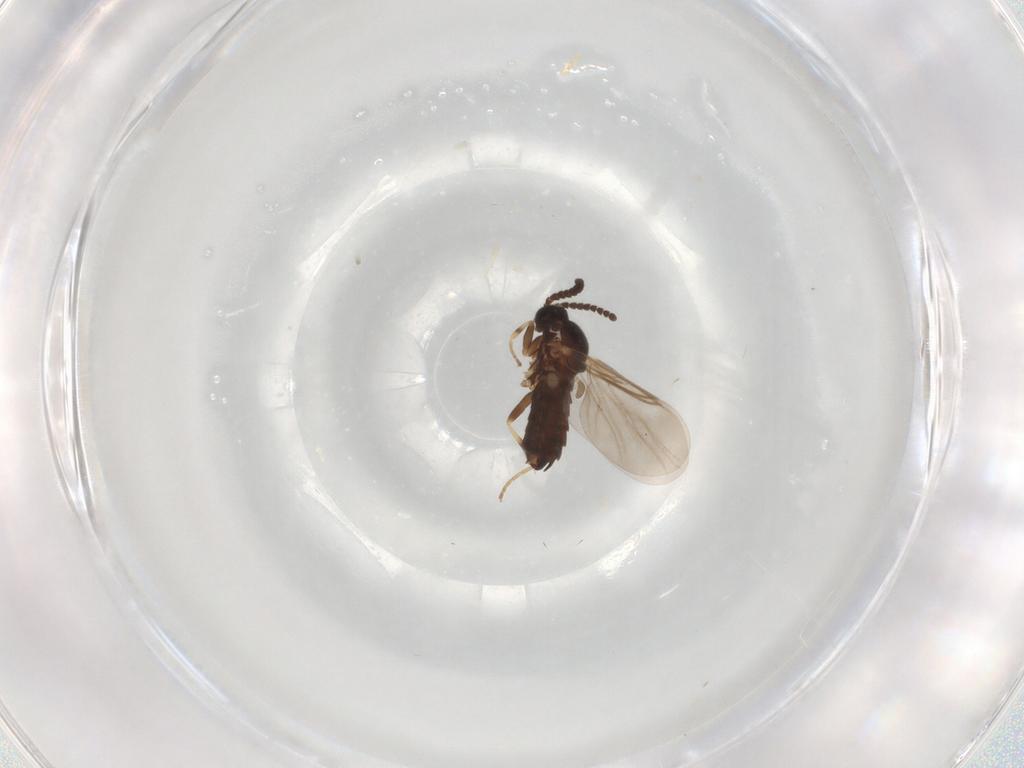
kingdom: Animalia
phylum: Arthropoda
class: Insecta
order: Diptera
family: Scatopsidae
